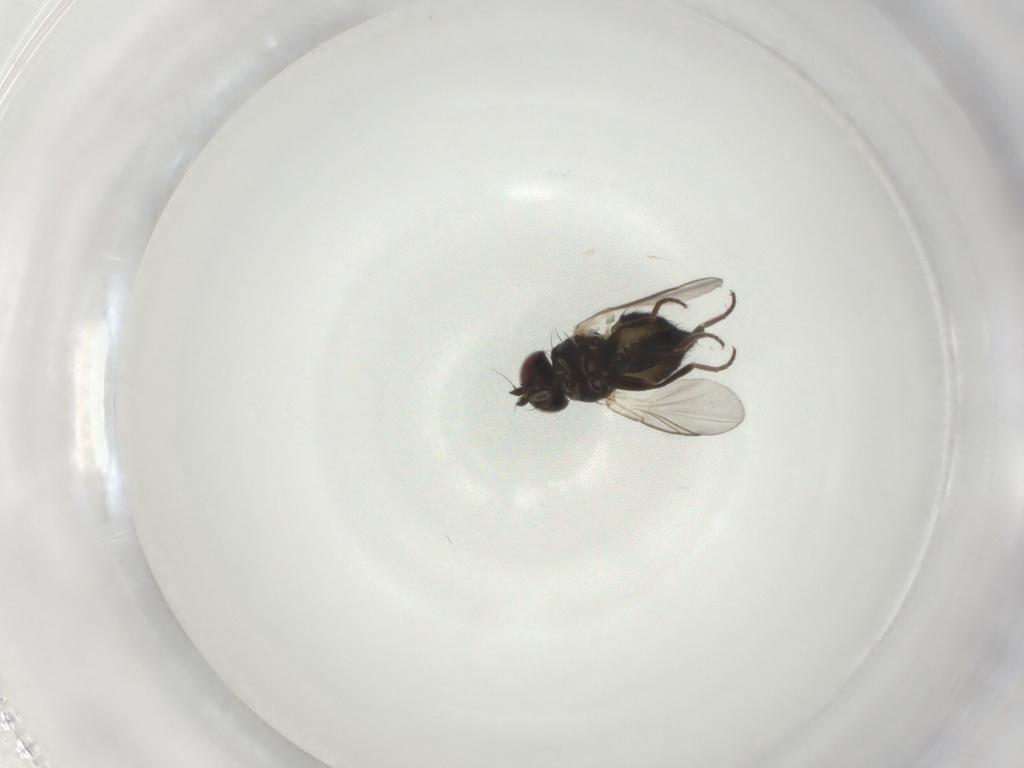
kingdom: Animalia
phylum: Arthropoda
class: Insecta
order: Diptera
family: Agromyzidae
